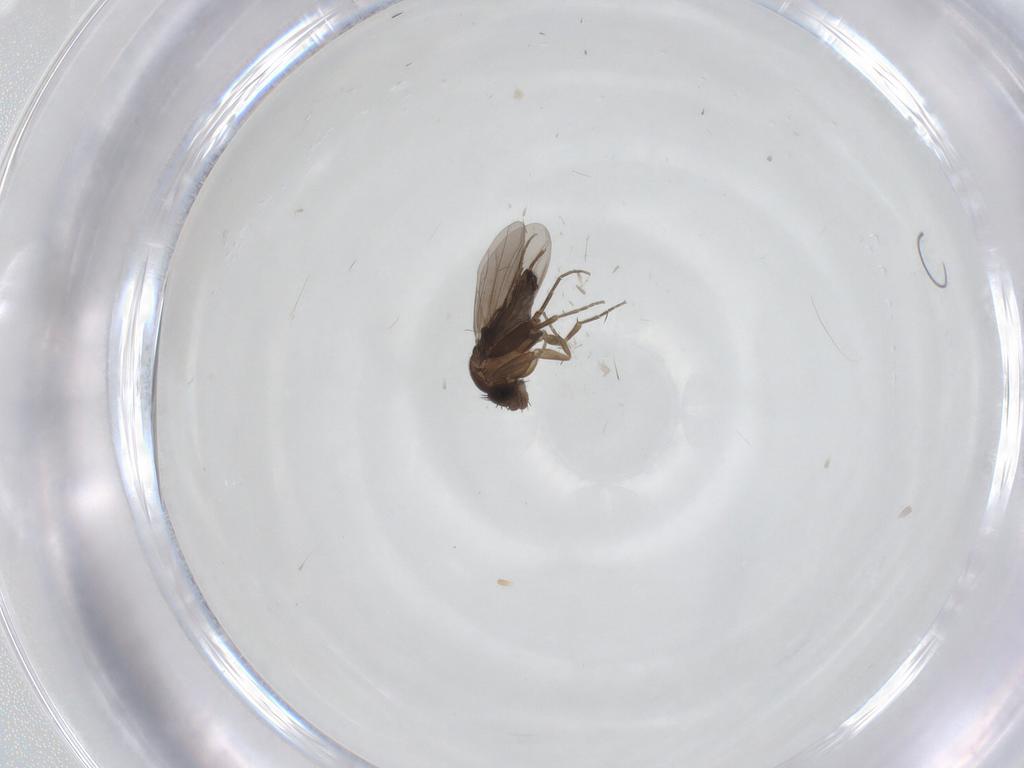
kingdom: Animalia
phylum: Arthropoda
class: Insecta
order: Diptera
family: Phoridae
